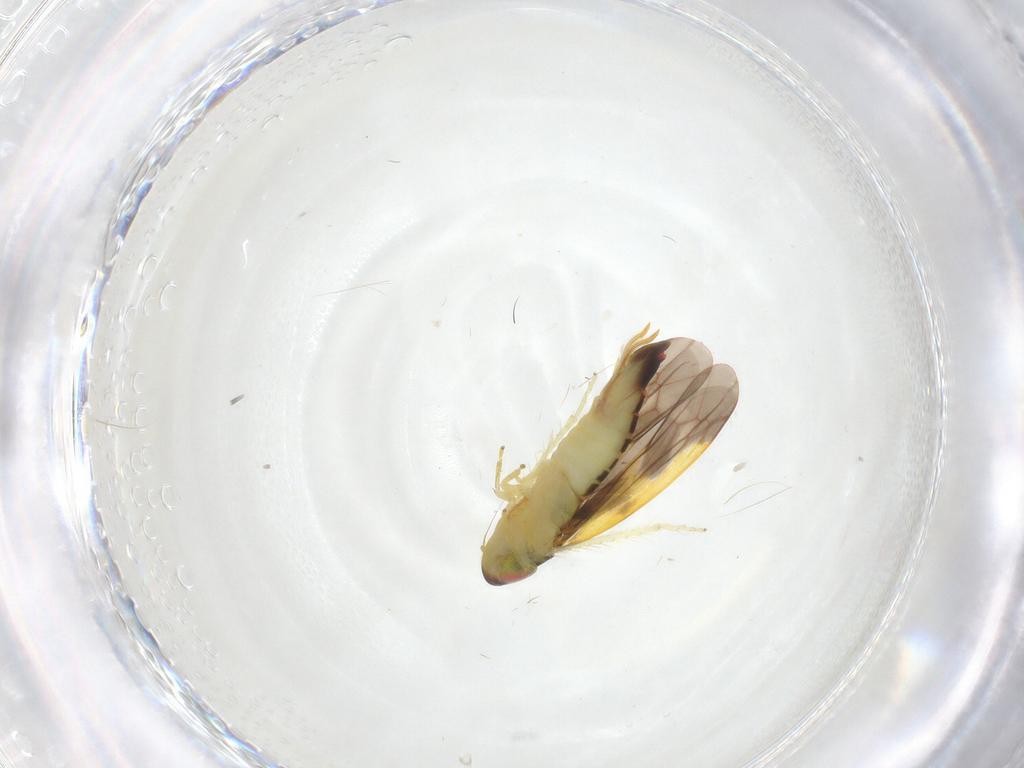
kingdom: Animalia
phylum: Arthropoda
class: Insecta
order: Hemiptera
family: Cicadellidae
